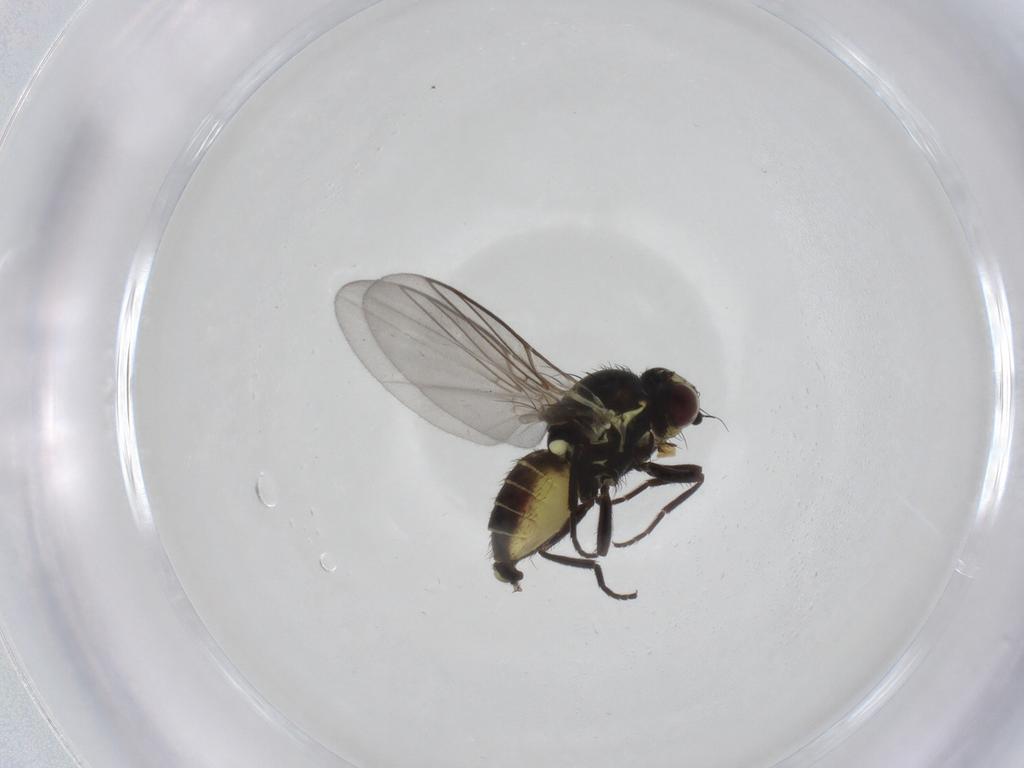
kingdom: Animalia
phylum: Arthropoda
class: Insecta
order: Diptera
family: Agromyzidae
